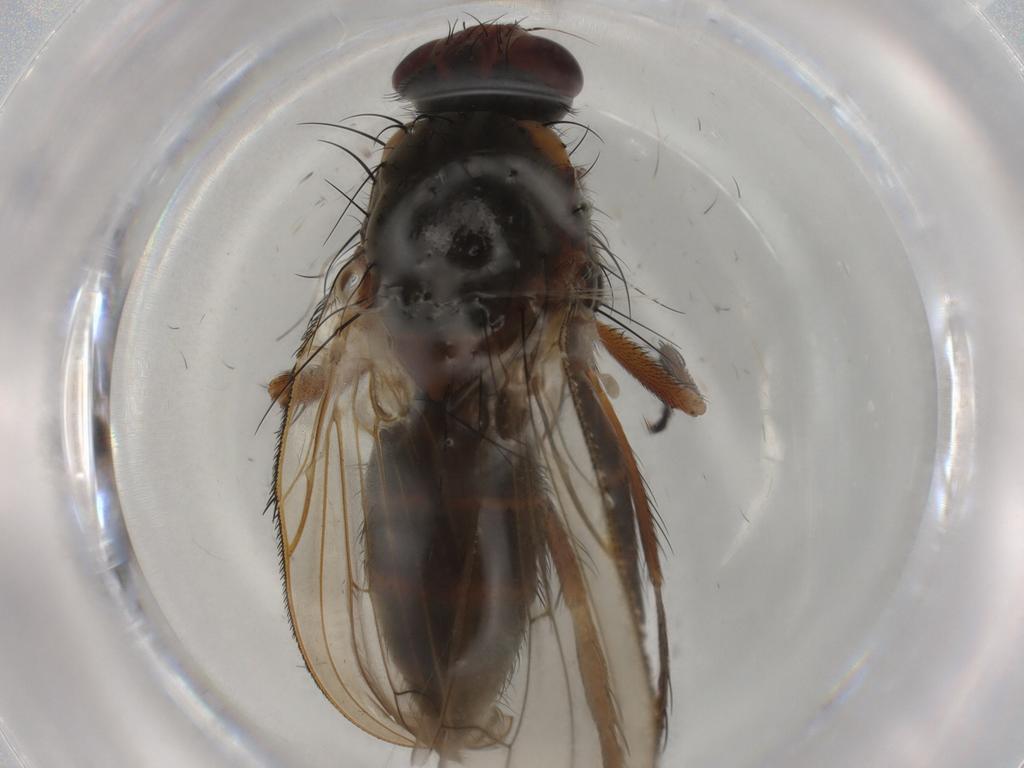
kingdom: Animalia
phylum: Arthropoda
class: Insecta
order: Diptera
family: Anthomyiidae
